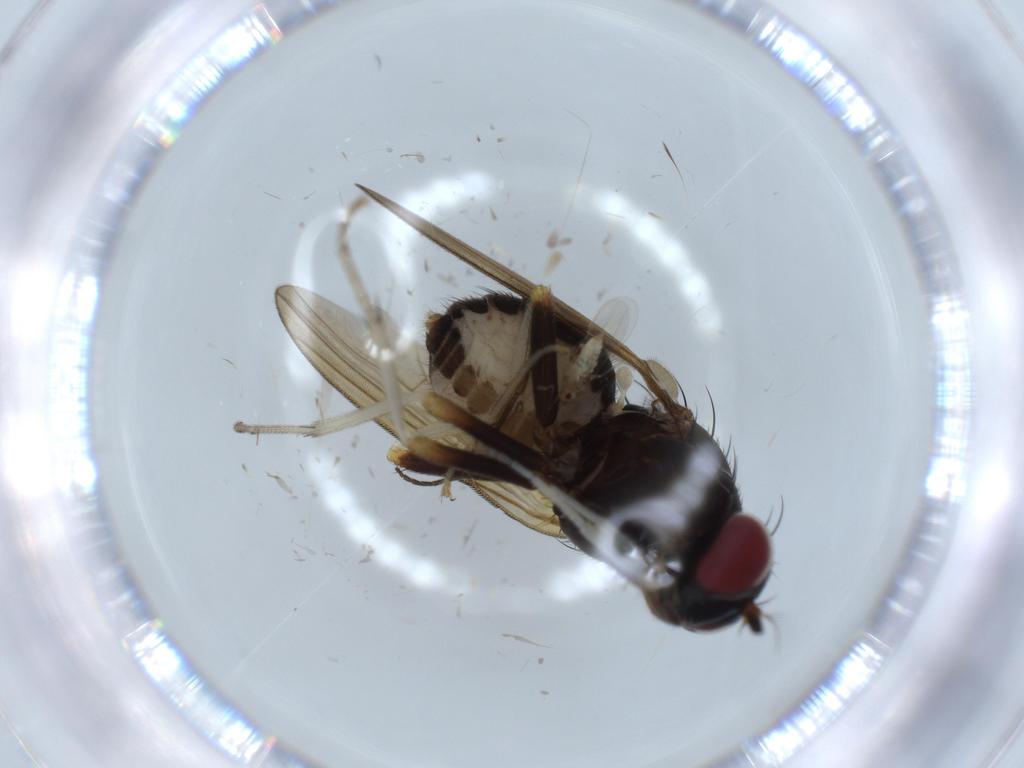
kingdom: Animalia
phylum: Arthropoda
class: Insecta
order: Diptera
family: Sciaridae
